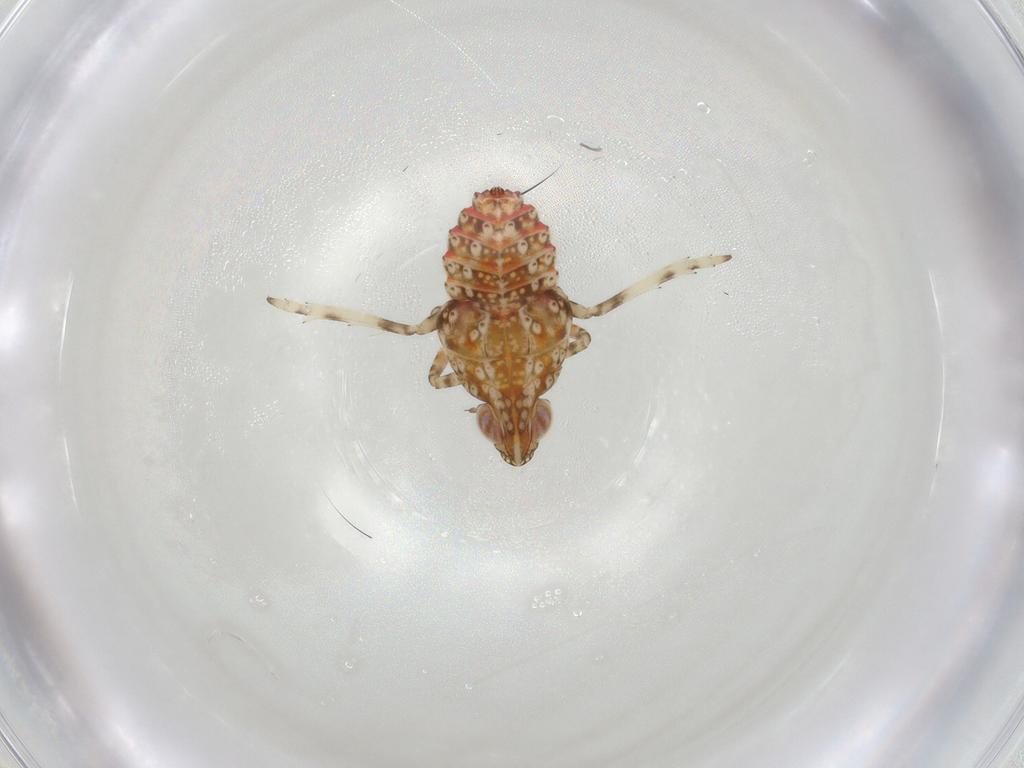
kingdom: Animalia
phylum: Arthropoda
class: Insecta
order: Hemiptera
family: Tropiduchidae
